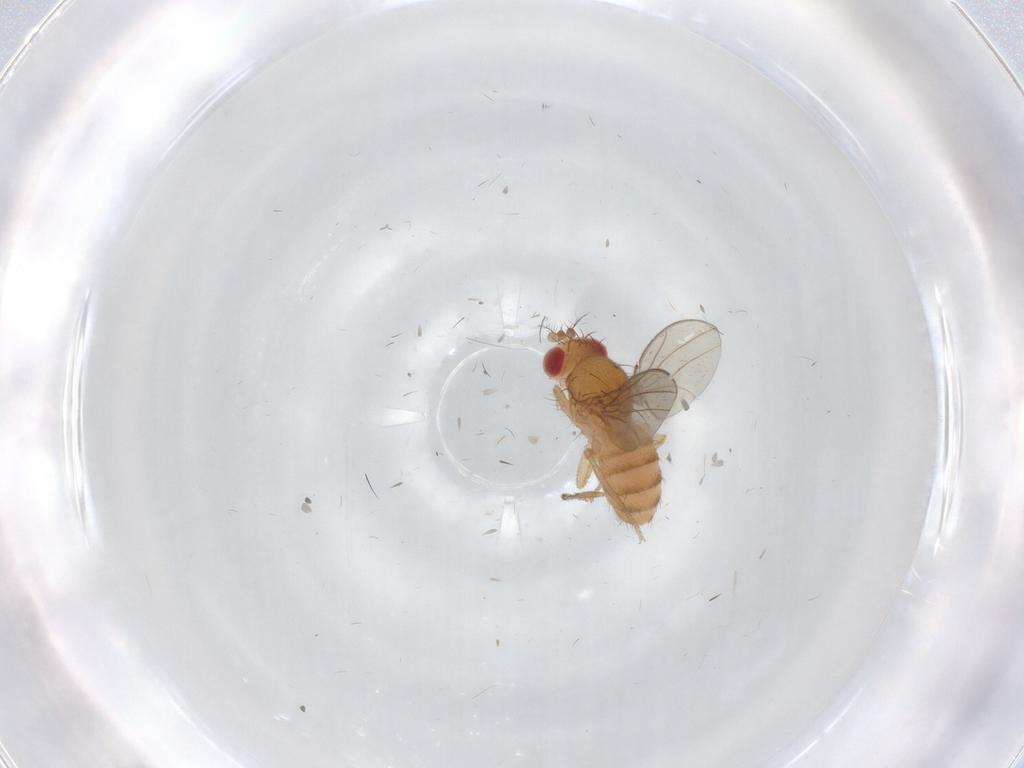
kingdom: Animalia
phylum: Arthropoda
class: Insecta
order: Diptera
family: Drosophilidae
